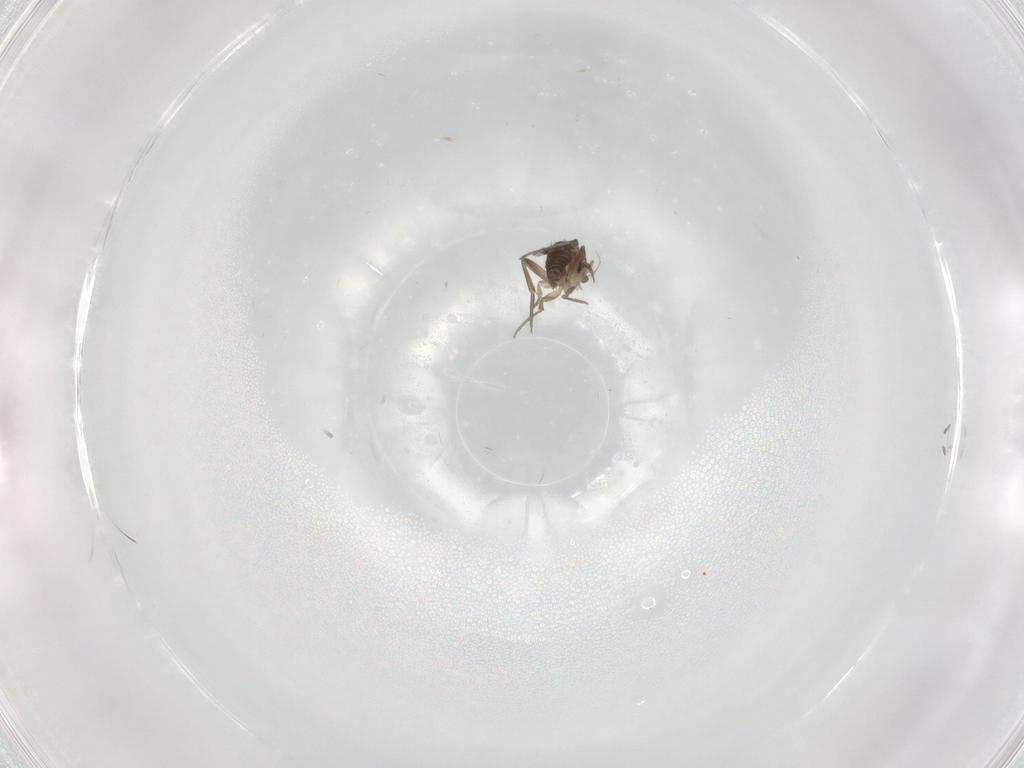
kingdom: Animalia
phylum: Arthropoda
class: Insecta
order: Diptera
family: Phoridae
